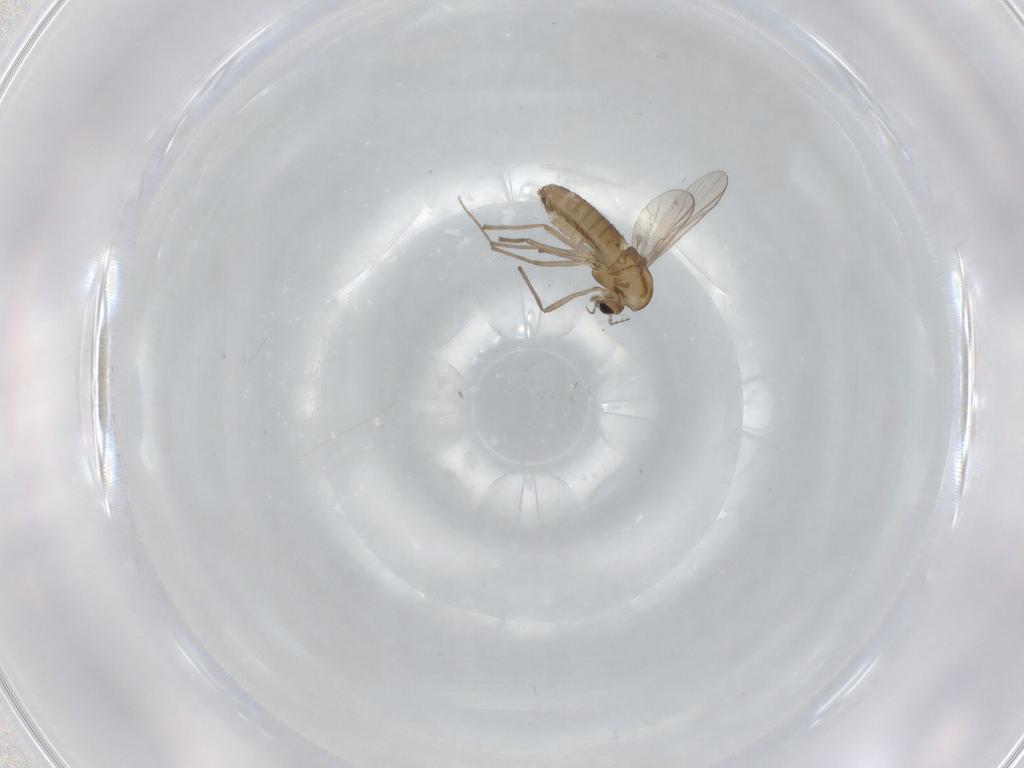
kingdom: Animalia
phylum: Arthropoda
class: Insecta
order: Diptera
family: Chironomidae
